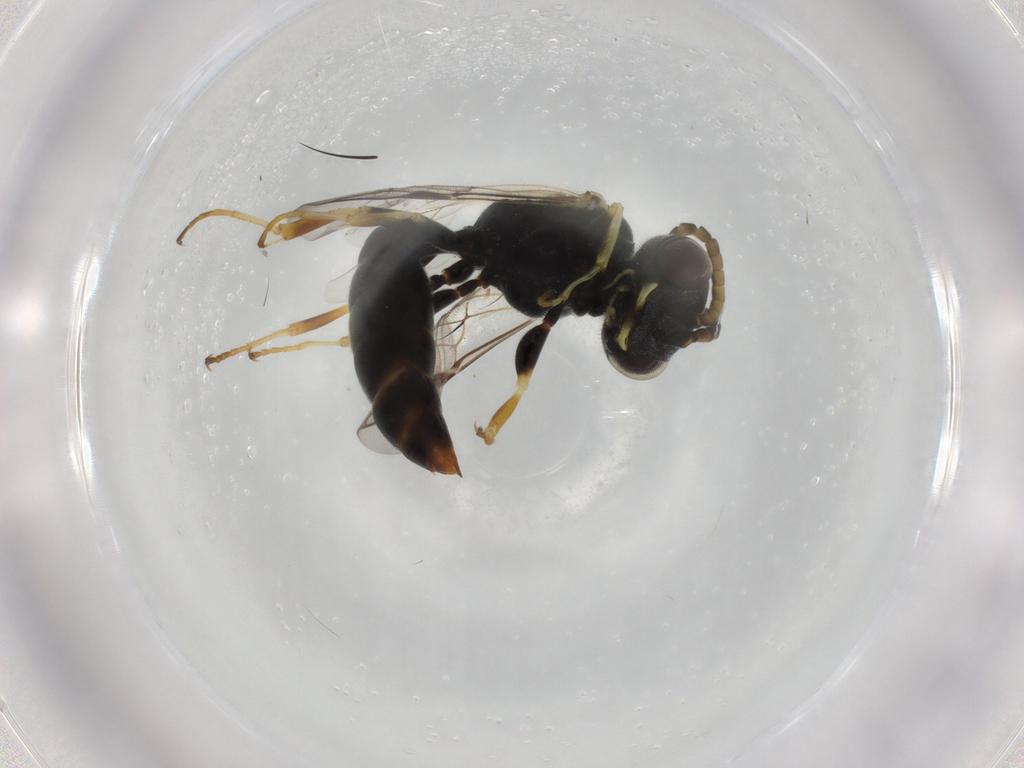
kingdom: Animalia
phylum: Arthropoda
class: Insecta
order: Hymenoptera
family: Crabronidae
